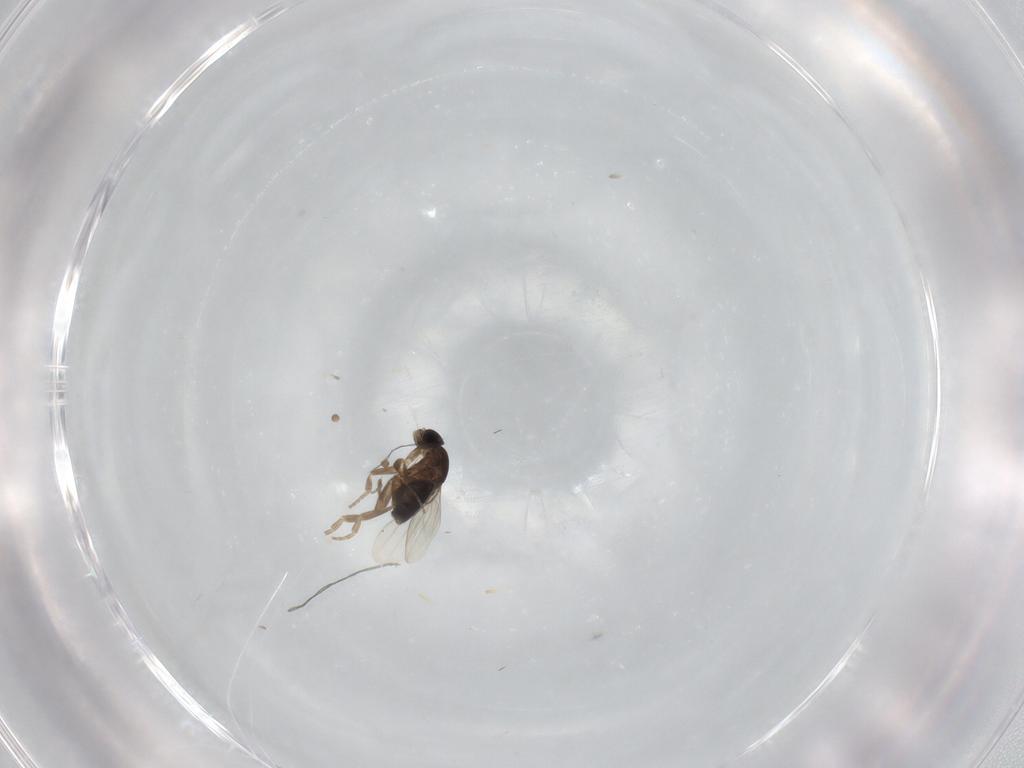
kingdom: Animalia
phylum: Arthropoda
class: Insecta
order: Diptera
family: Phoridae
